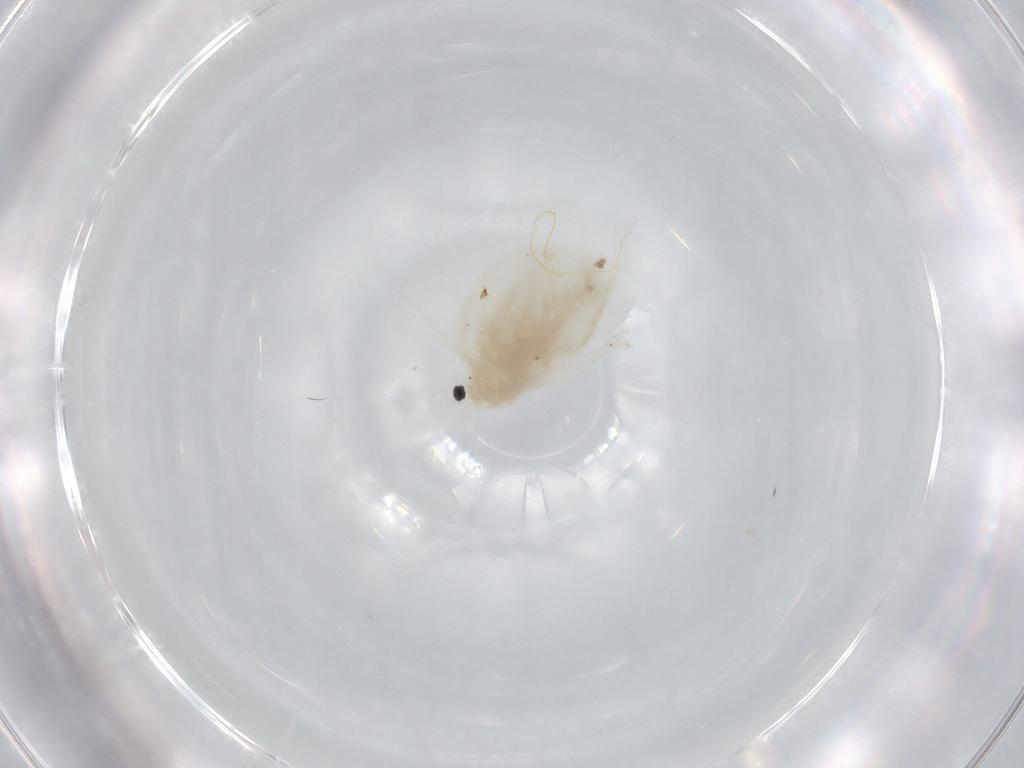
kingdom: Animalia
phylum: Arthropoda
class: Branchiopoda
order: Diplostraca
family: Daphniidae
